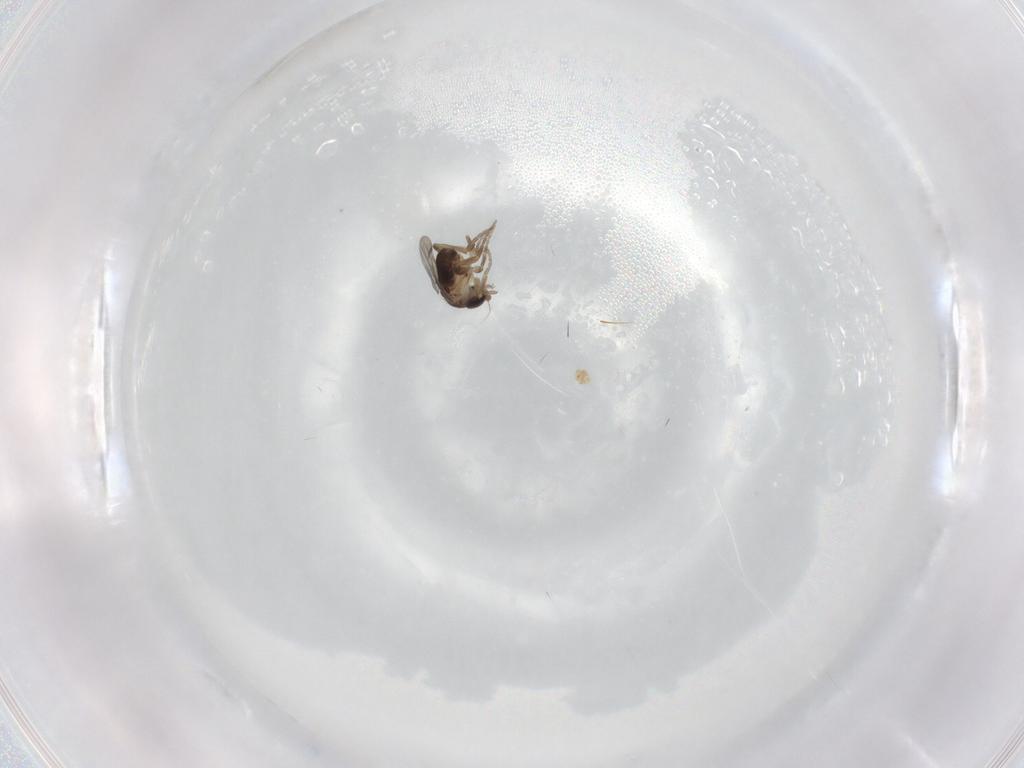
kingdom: Animalia
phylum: Arthropoda
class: Insecta
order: Diptera
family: Phoridae
